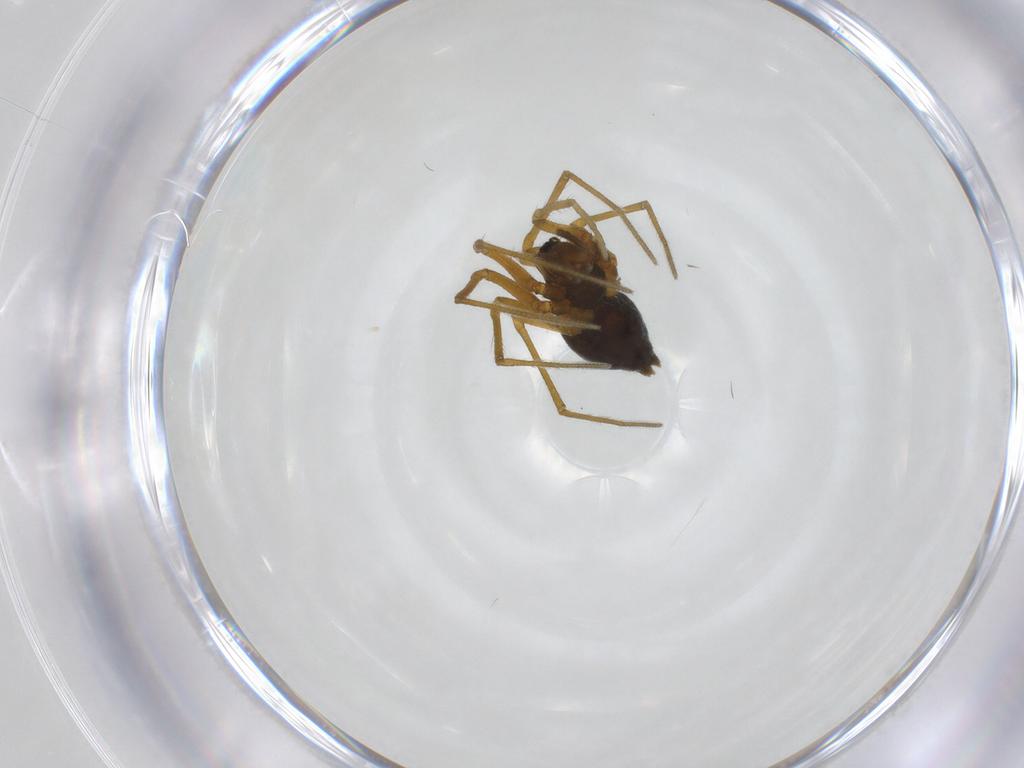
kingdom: Animalia
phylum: Arthropoda
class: Arachnida
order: Araneae
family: Linyphiidae
